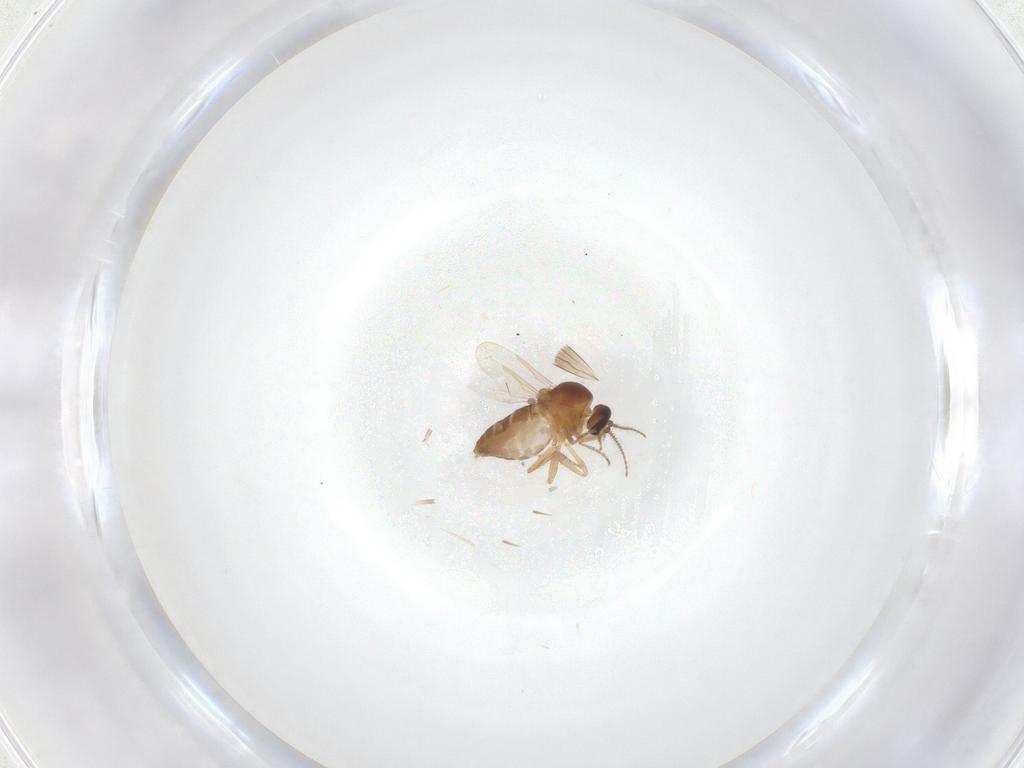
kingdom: Animalia
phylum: Arthropoda
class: Insecta
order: Diptera
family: Ceratopogonidae
